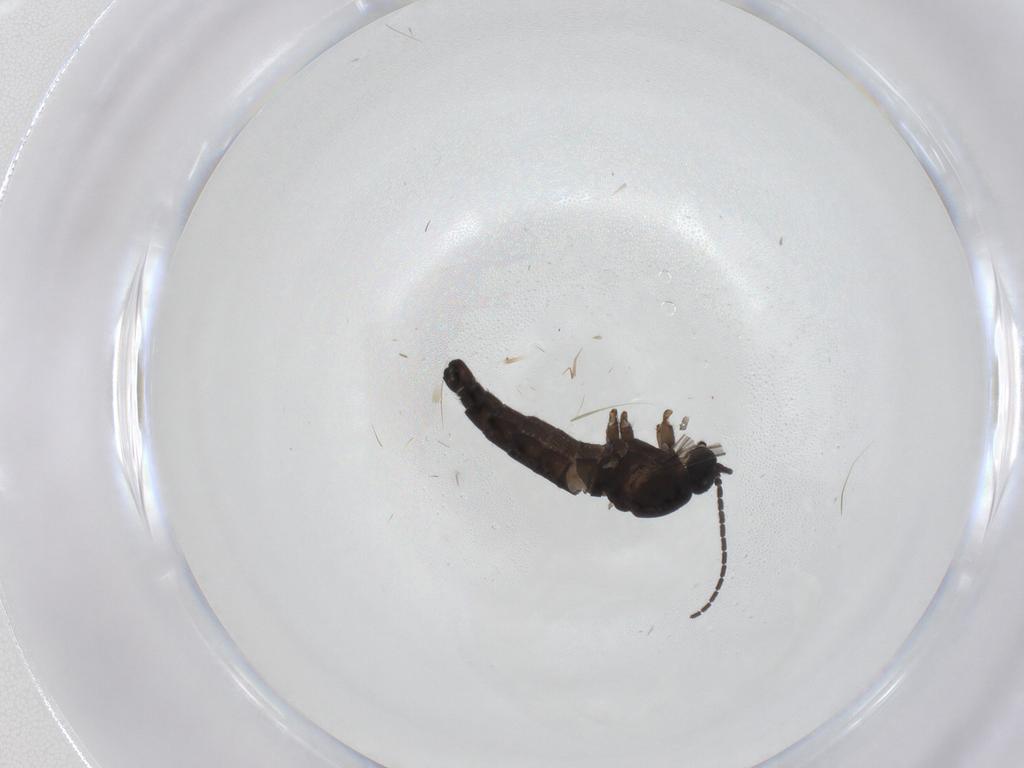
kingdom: Animalia
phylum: Arthropoda
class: Insecta
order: Diptera
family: Sciaridae
